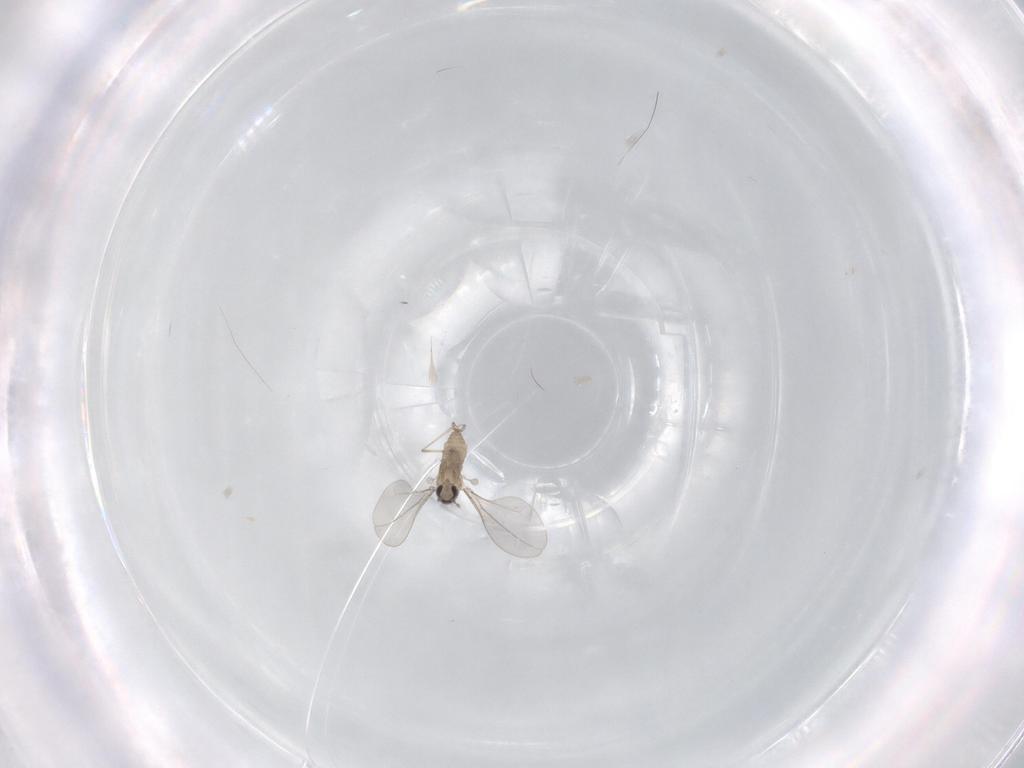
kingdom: Animalia
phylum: Arthropoda
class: Insecta
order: Diptera
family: Cecidomyiidae
